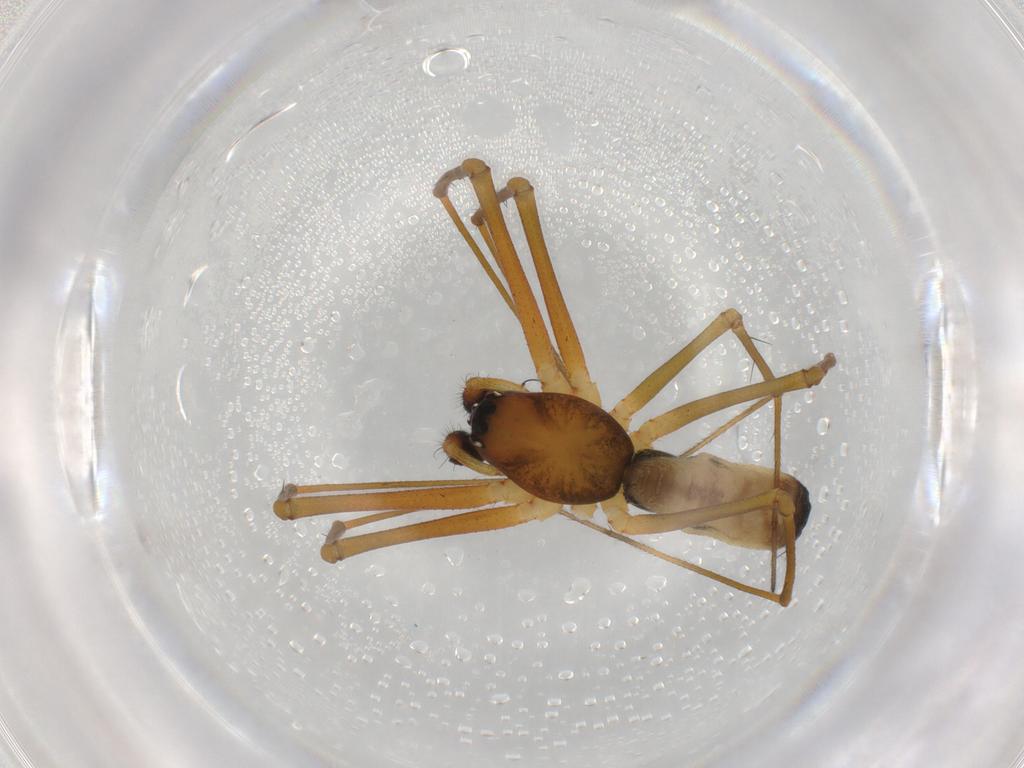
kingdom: Animalia
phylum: Arthropoda
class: Arachnida
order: Araneae
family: Theridiidae
